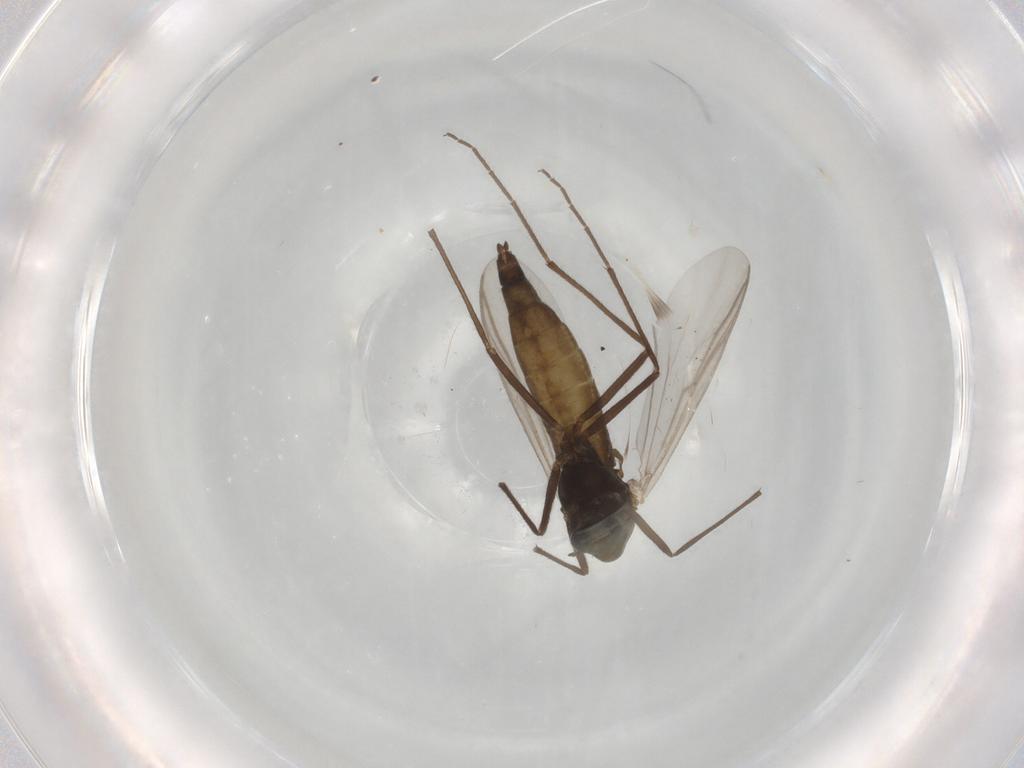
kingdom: Animalia
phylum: Arthropoda
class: Insecta
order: Diptera
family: Chironomidae
